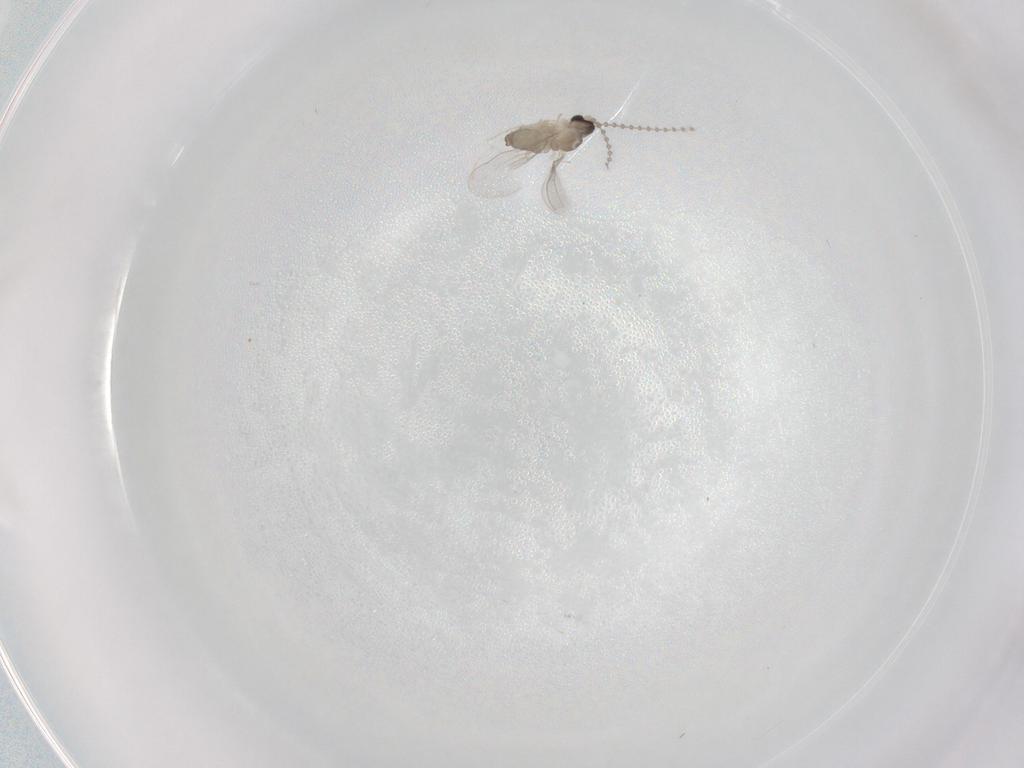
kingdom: Animalia
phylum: Arthropoda
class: Insecta
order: Diptera
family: Cecidomyiidae
